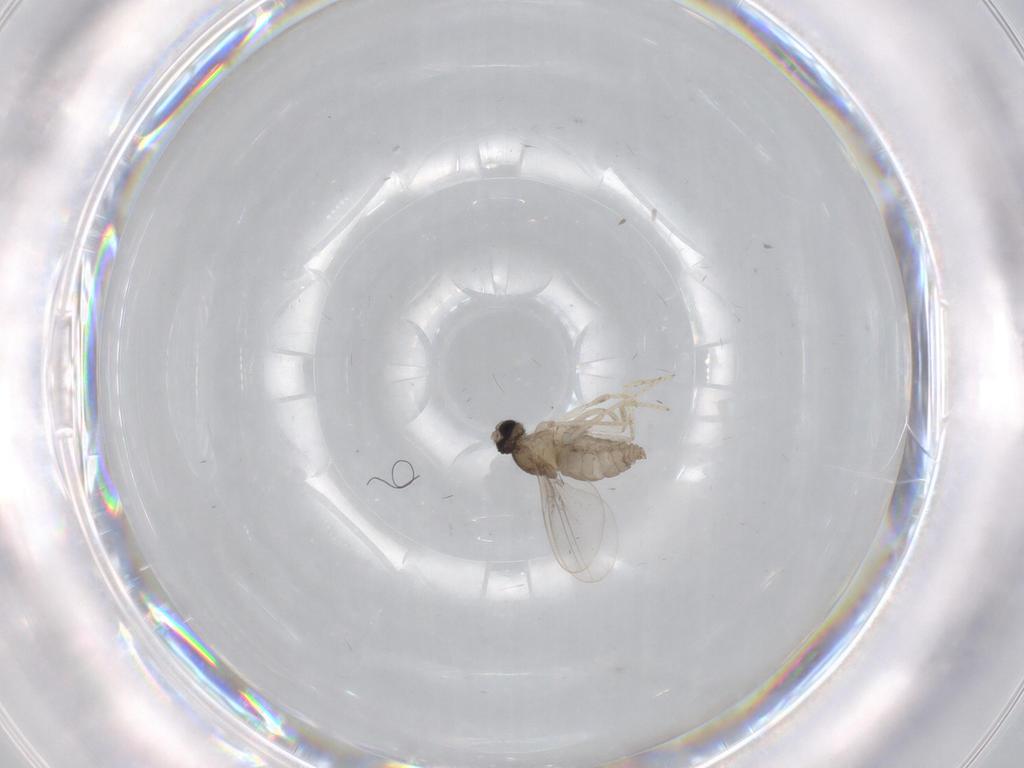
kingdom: Animalia
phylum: Arthropoda
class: Insecta
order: Diptera
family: Cecidomyiidae
